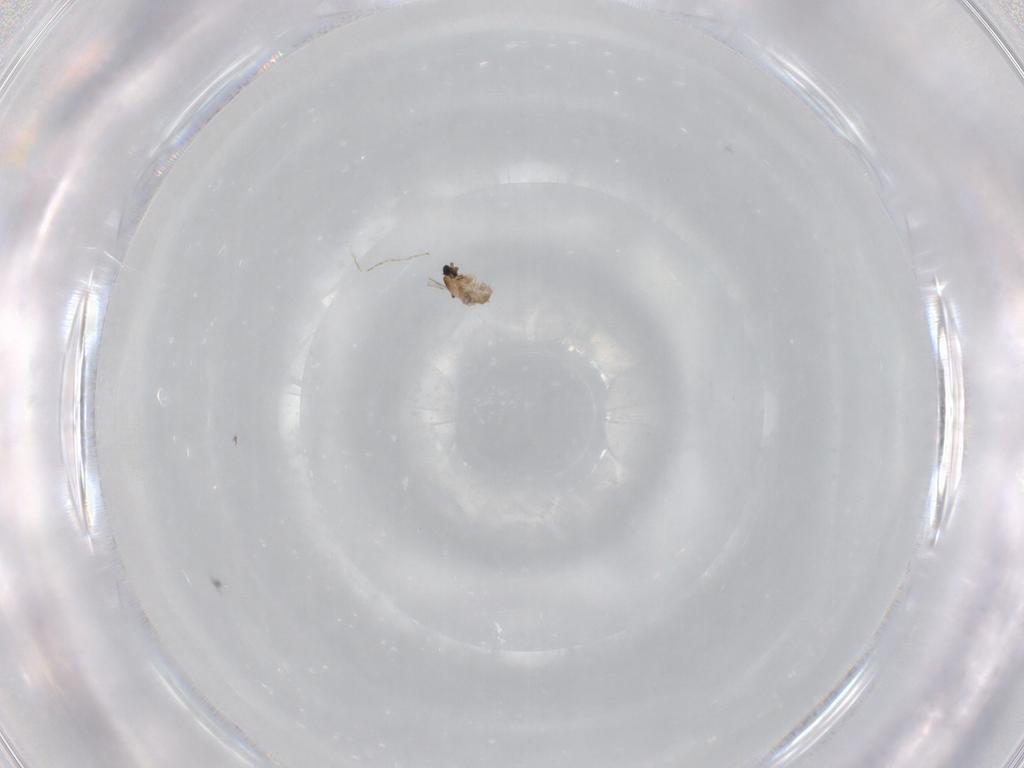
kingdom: Animalia
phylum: Arthropoda
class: Insecta
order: Diptera
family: Cecidomyiidae
